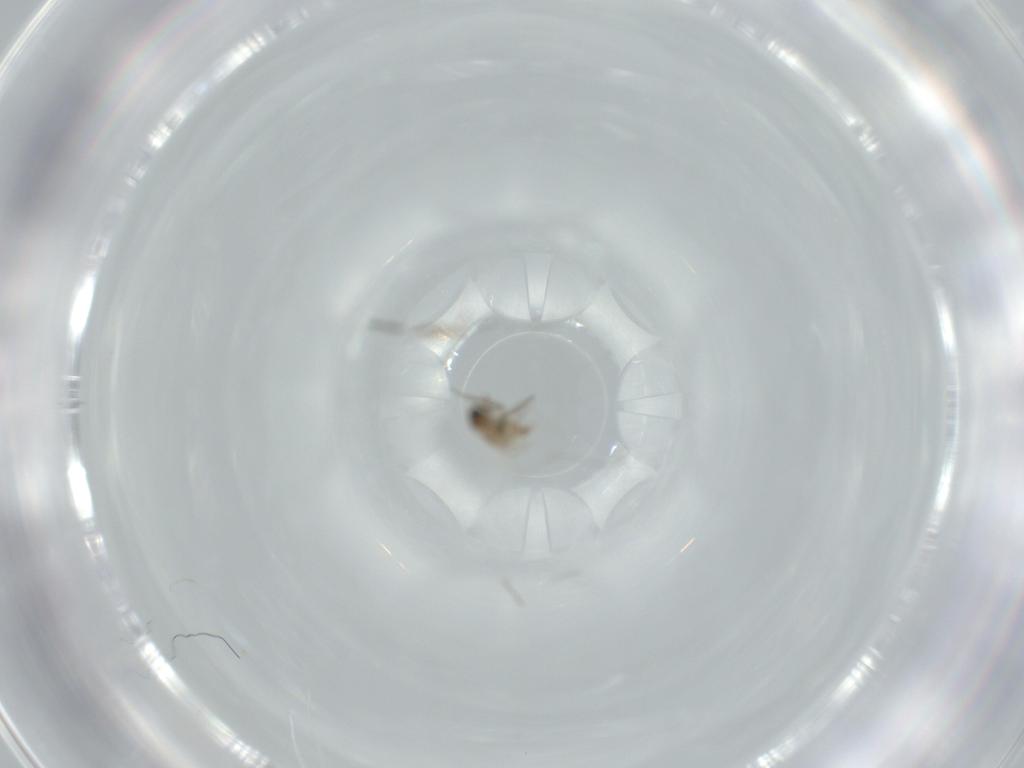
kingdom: Animalia
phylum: Arthropoda
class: Insecta
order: Diptera
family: Cecidomyiidae
